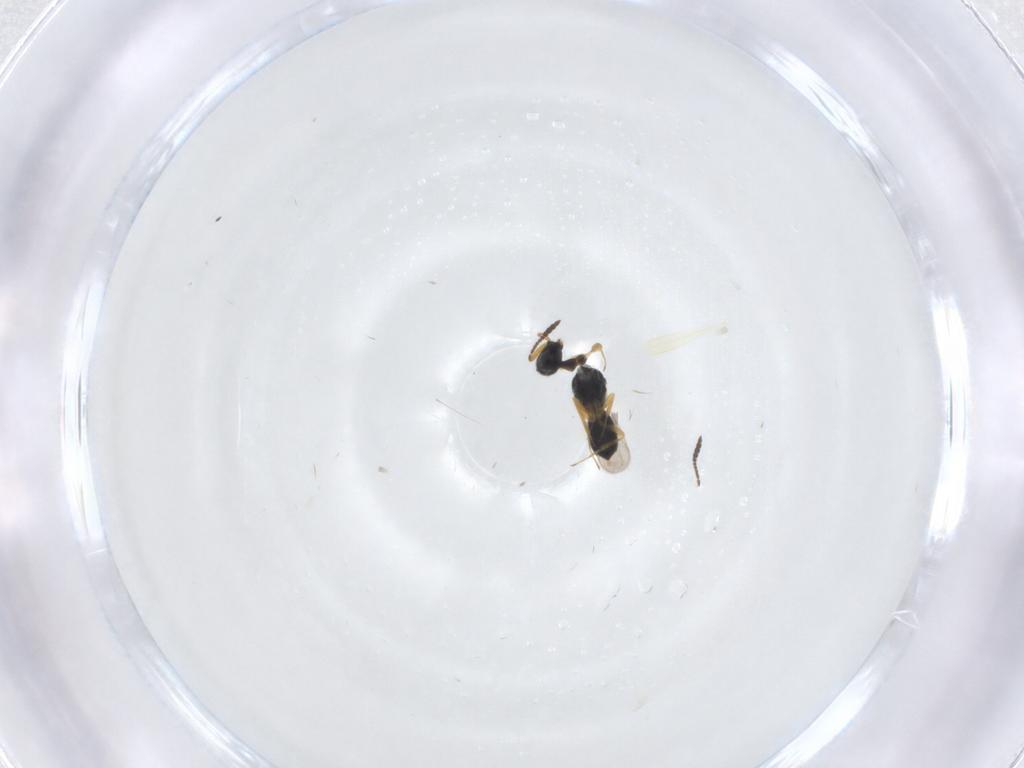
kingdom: Animalia
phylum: Arthropoda
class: Insecta
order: Hymenoptera
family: Scelionidae
